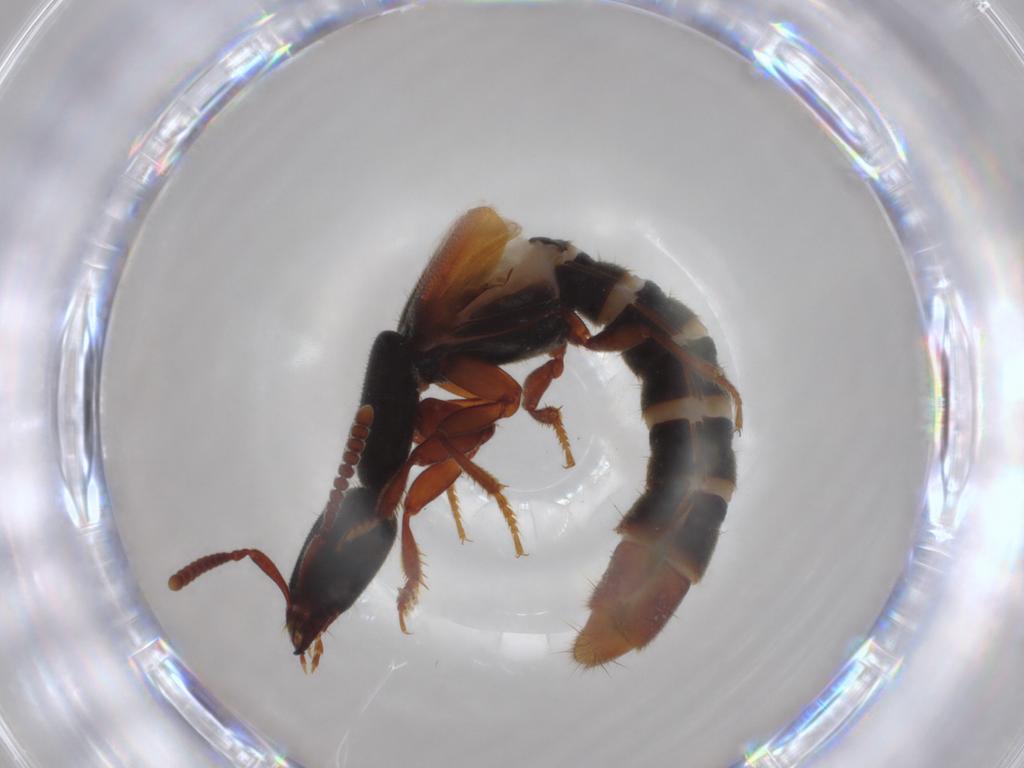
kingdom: Animalia
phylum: Arthropoda
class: Insecta
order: Coleoptera
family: Staphylinidae
